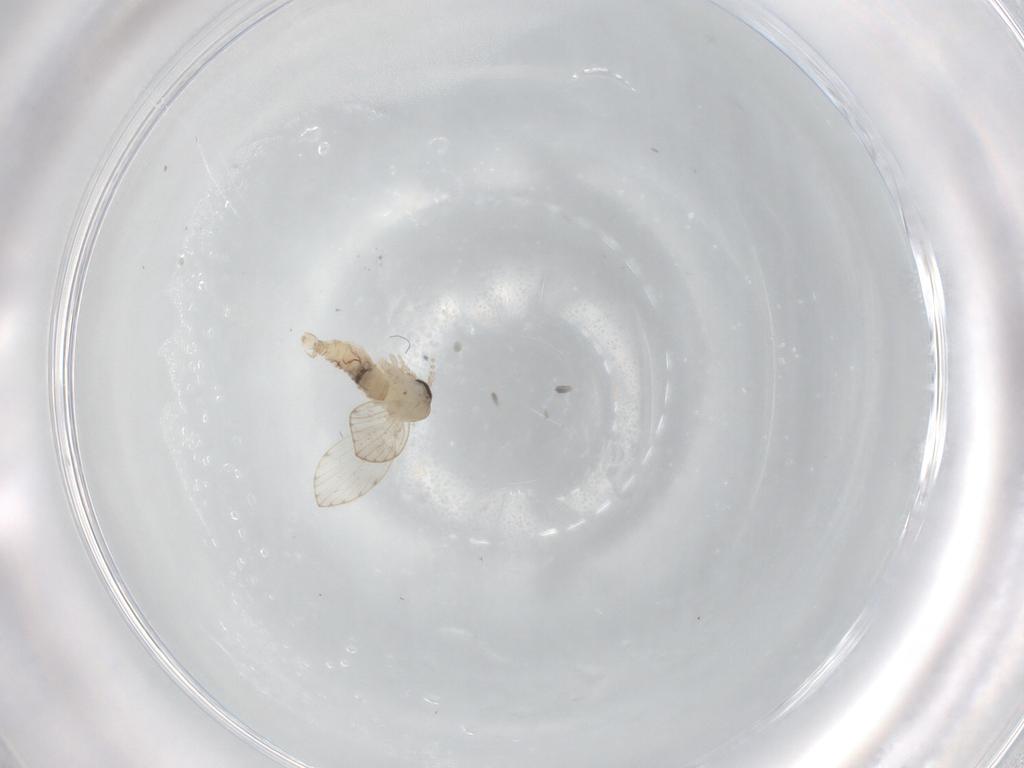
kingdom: Animalia
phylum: Arthropoda
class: Insecta
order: Diptera
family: Psychodidae
